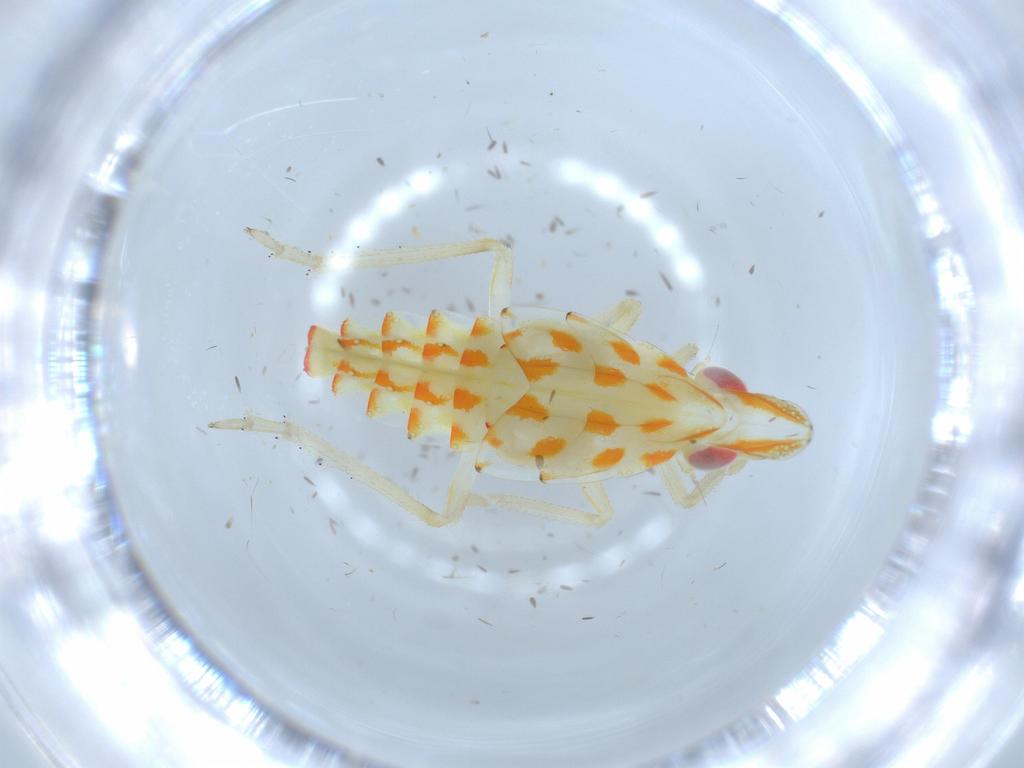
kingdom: Animalia
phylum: Arthropoda
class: Insecta
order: Hemiptera
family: Tropiduchidae
